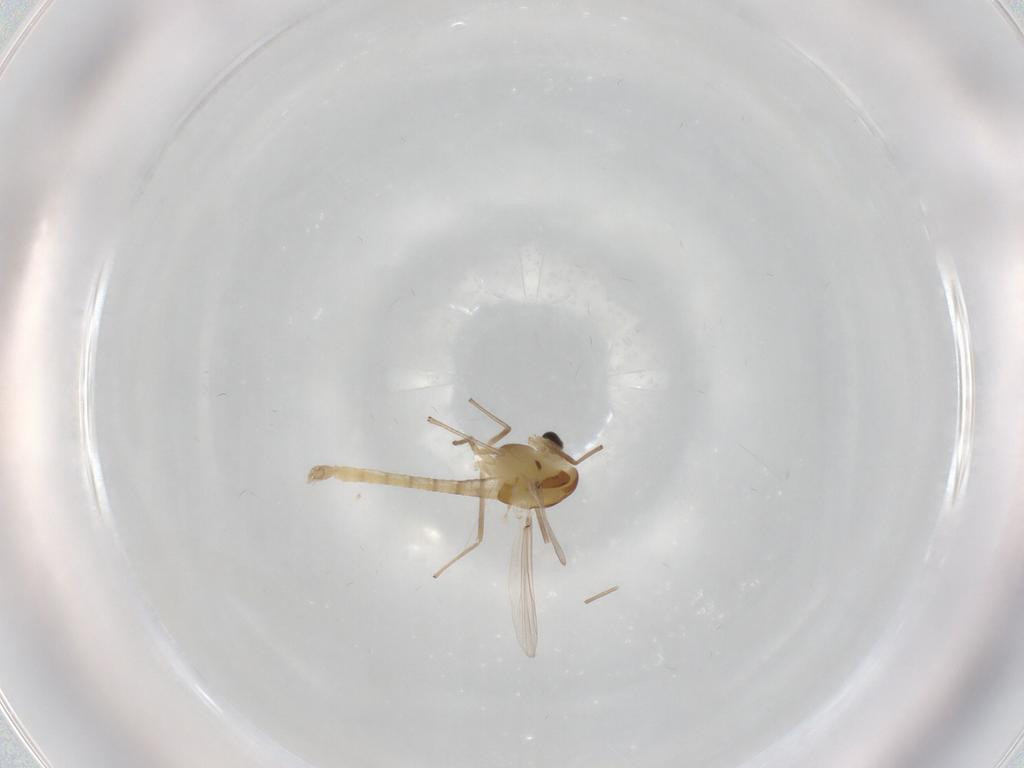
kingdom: Animalia
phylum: Arthropoda
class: Insecta
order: Diptera
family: Chironomidae
